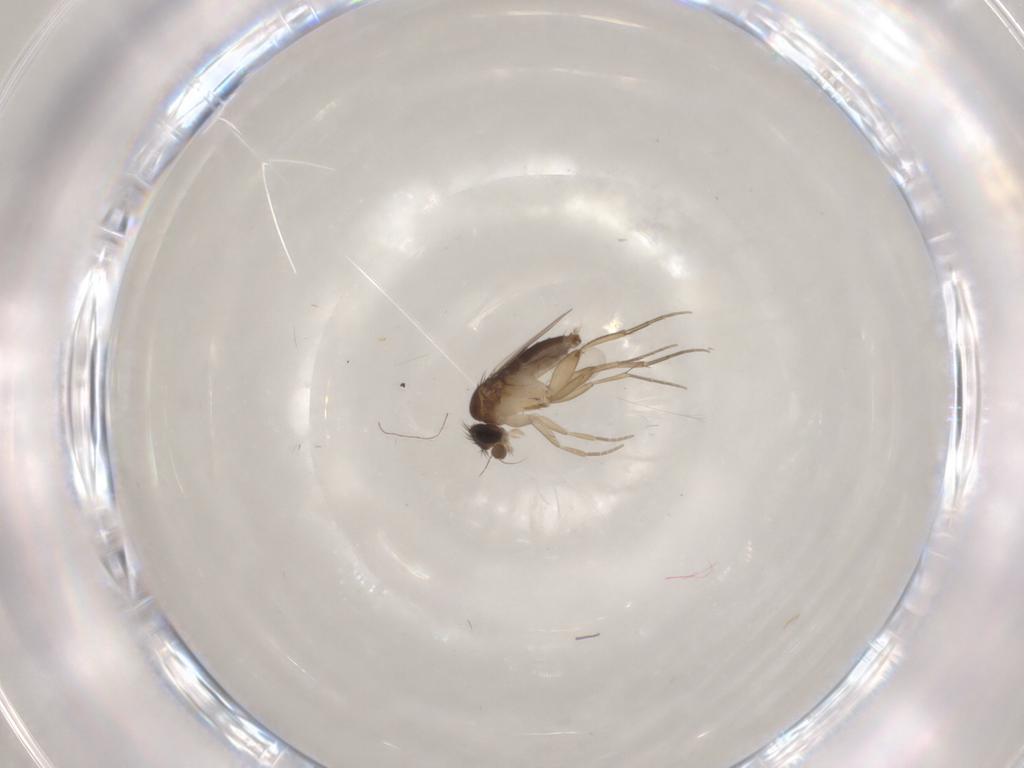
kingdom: Animalia
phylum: Arthropoda
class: Insecta
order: Diptera
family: Phoridae
